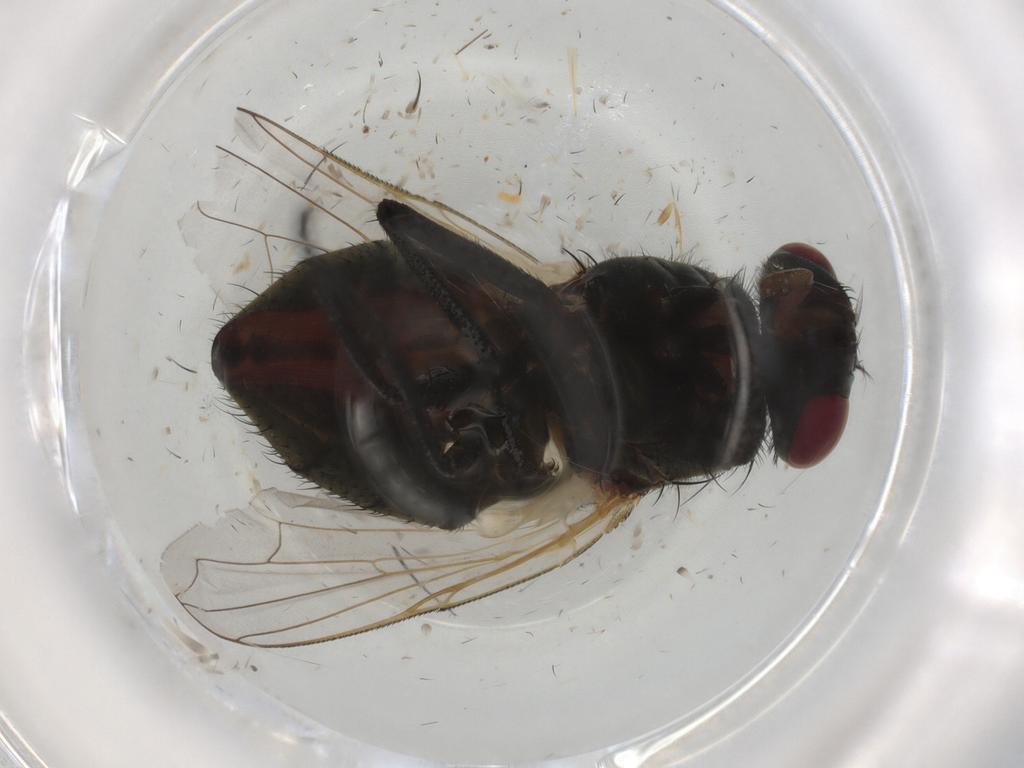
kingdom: Animalia
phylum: Arthropoda
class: Insecta
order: Diptera
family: Muscidae
